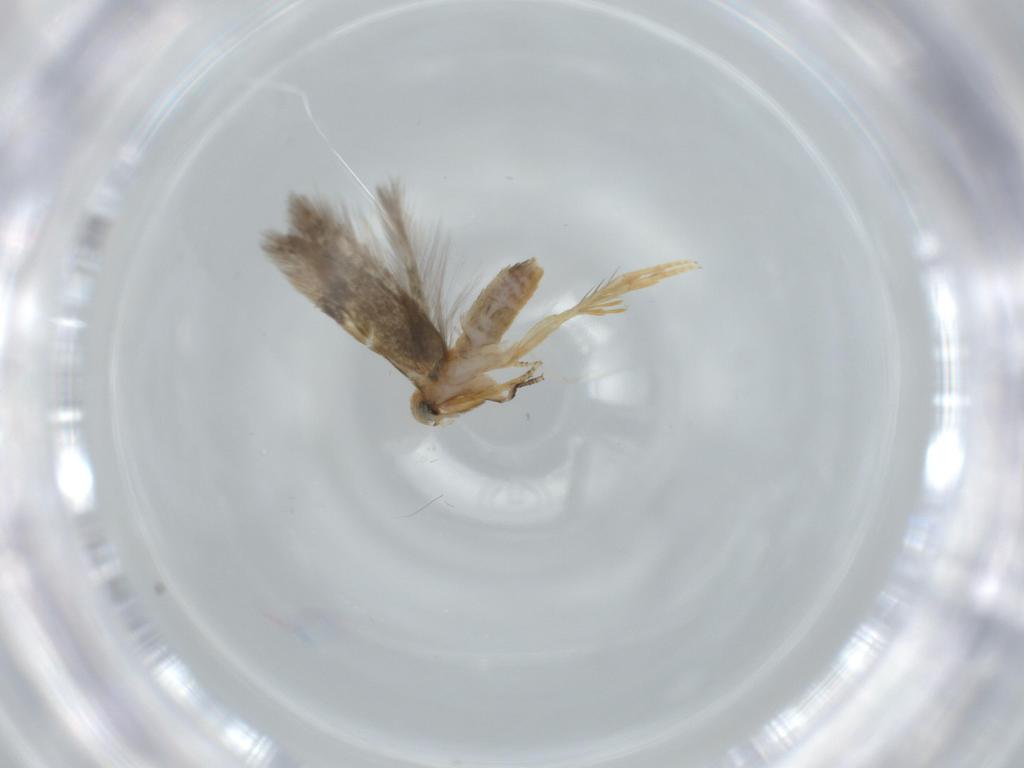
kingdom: Animalia
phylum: Arthropoda
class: Insecta
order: Lepidoptera
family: Nepticulidae
